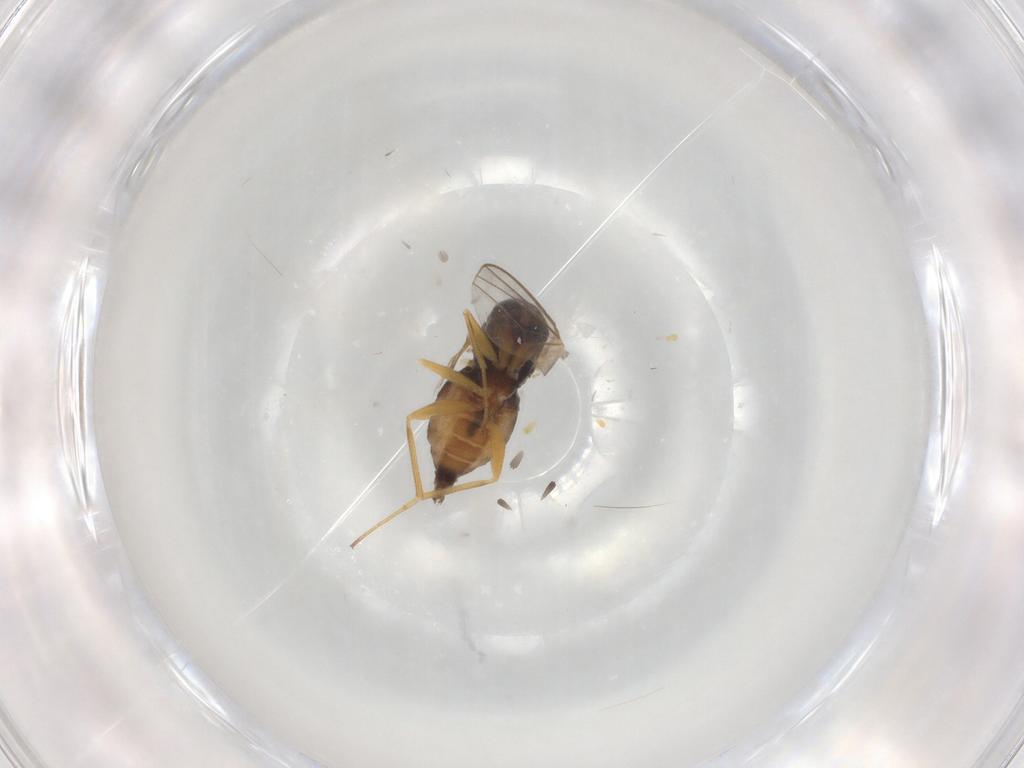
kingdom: Animalia
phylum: Arthropoda
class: Insecta
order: Diptera
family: Dolichopodidae
